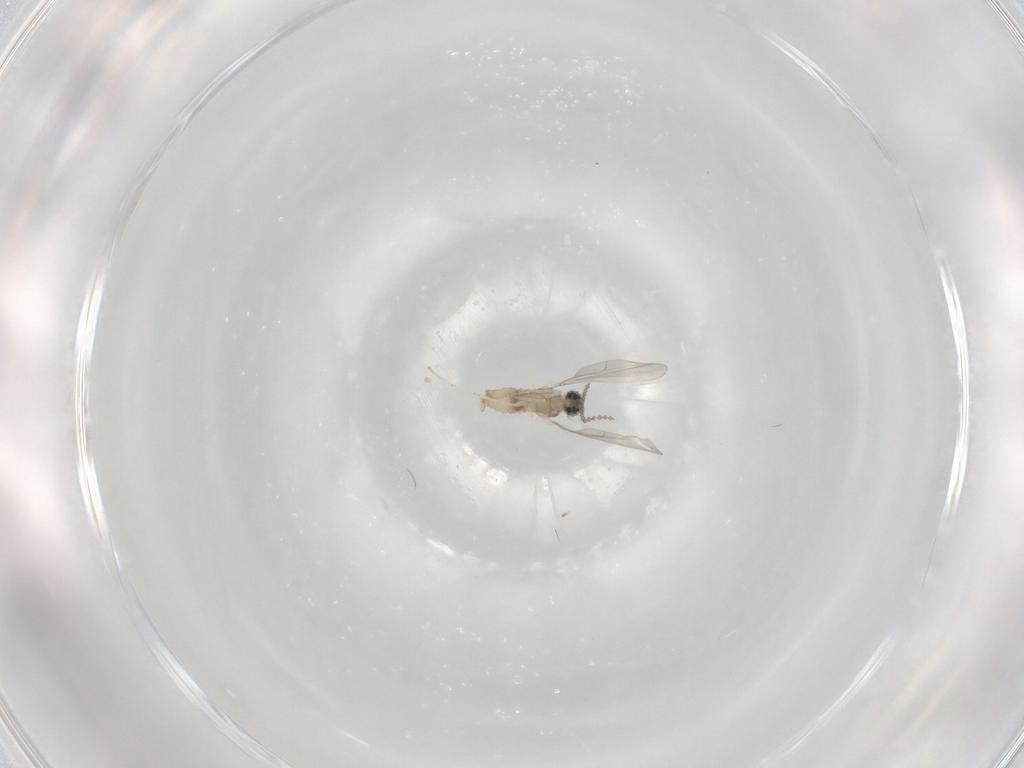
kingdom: Animalia
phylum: Arthropoda
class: Insecta
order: Diptera
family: Cecidomyiidae
